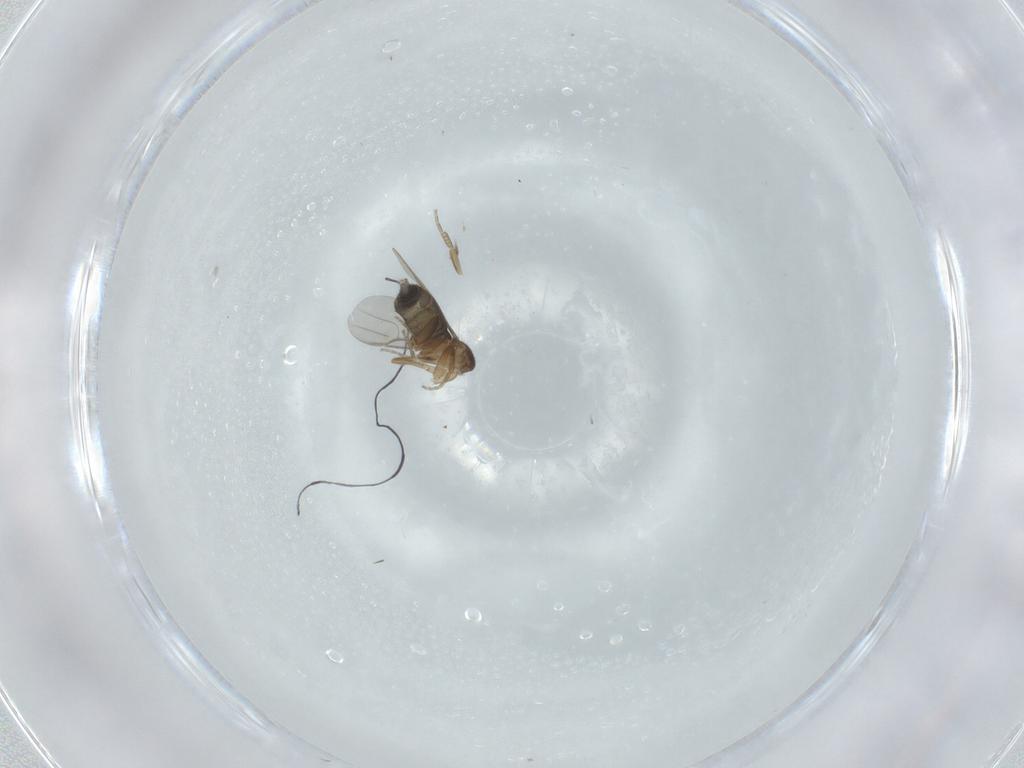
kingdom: Animalia
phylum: Arthropoda
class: Insecta
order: Diptera
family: Phoridae
